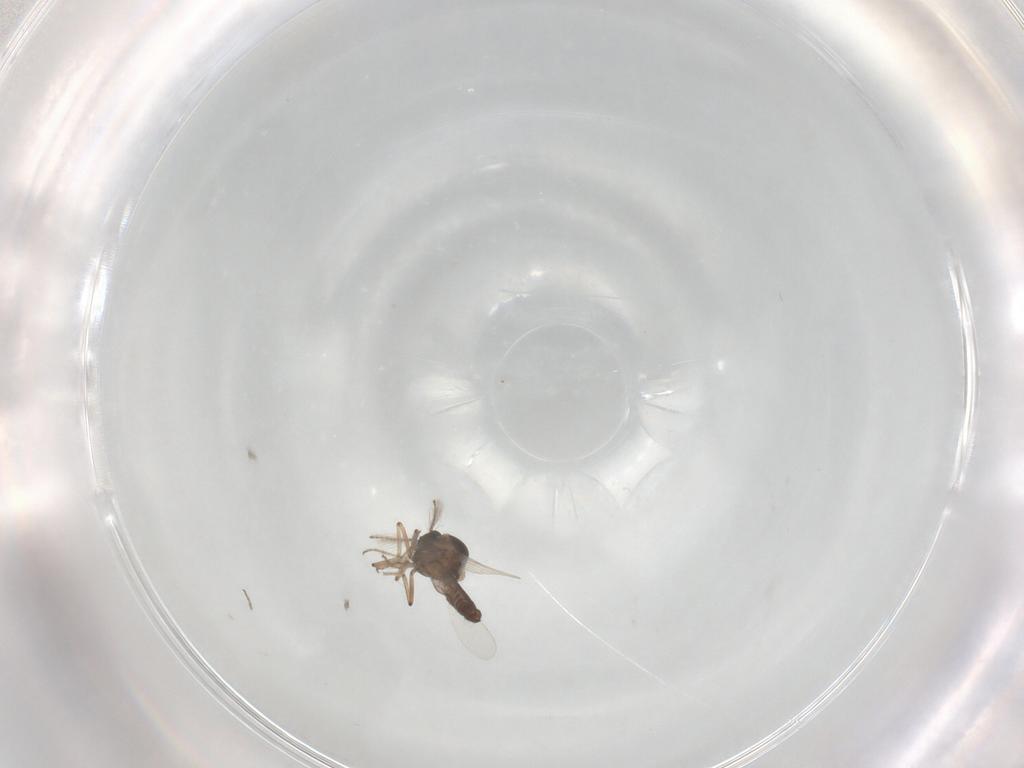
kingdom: Animalia
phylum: Arthropoda
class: Insecta
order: Diptera
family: Ceratopogonidae
